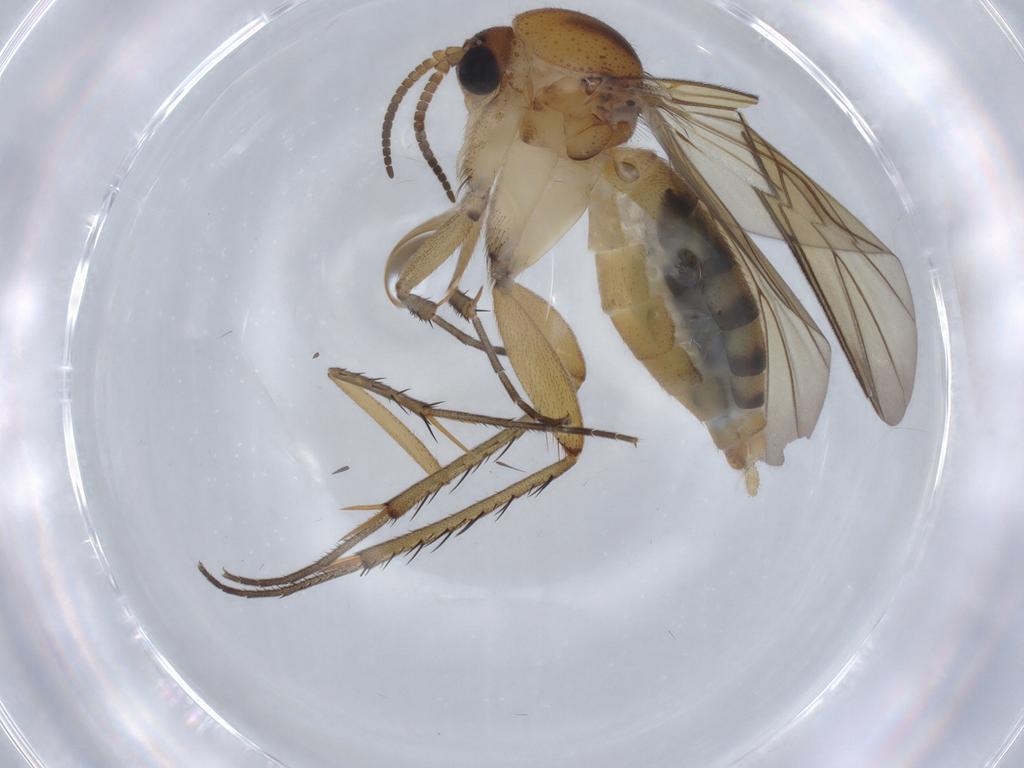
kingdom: Animalia
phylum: Arthropoda
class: Insecta
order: Diptera
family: Mycetophilidae
